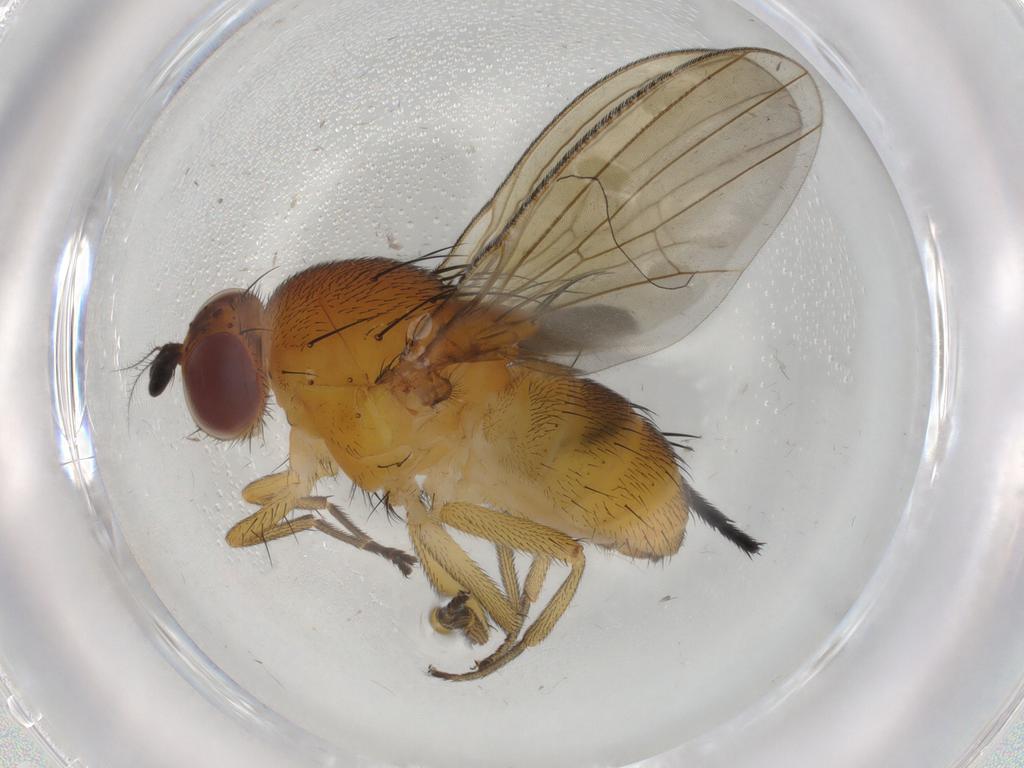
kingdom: Animalia
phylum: Arthropoda
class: Insecta
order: Diptera
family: Lauxaniidae
